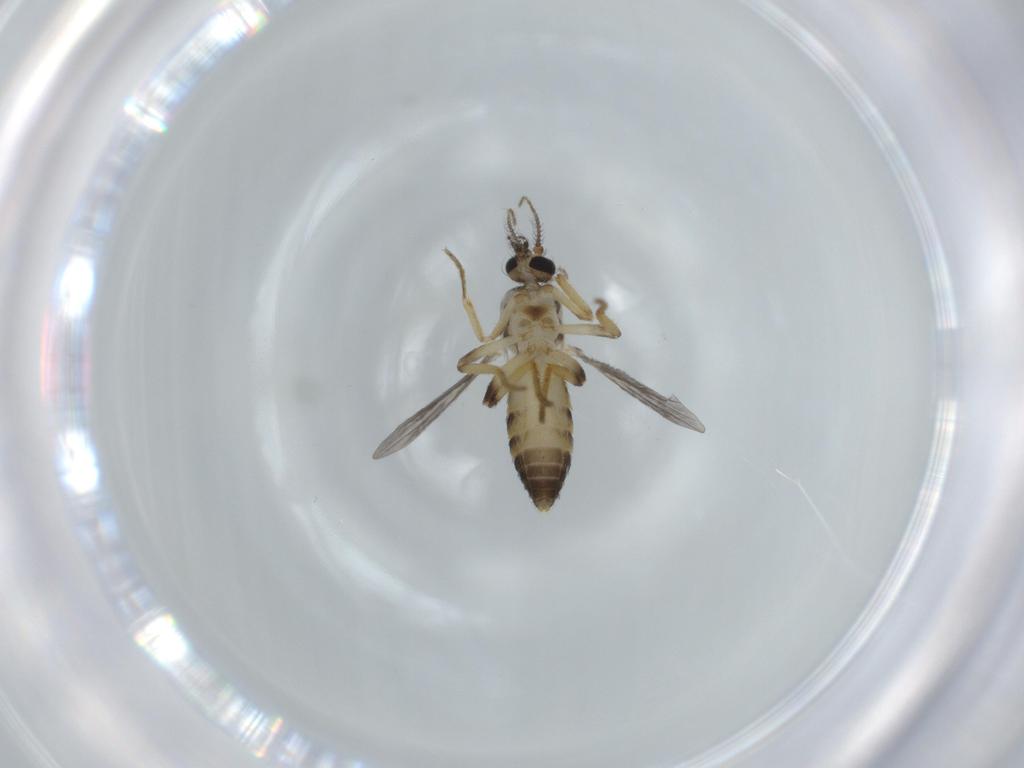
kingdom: Animalia
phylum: Arthropoda
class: Insecta
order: Diptera
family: Ceratopogonidae
